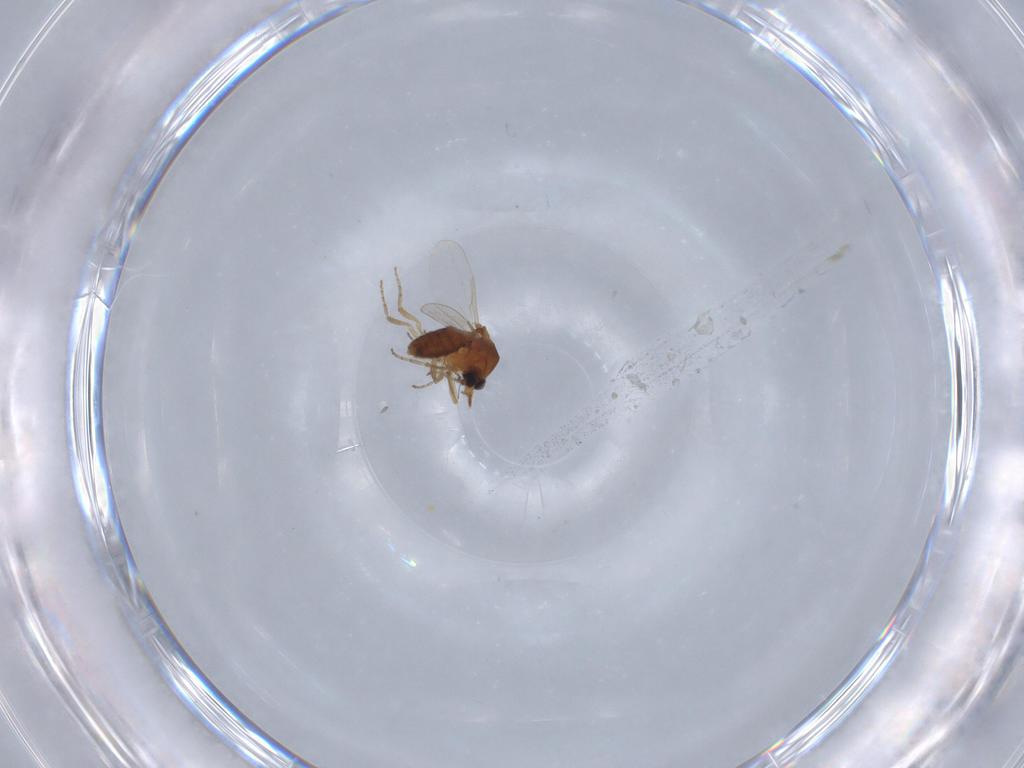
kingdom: Animalia
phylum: Arthropoda
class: Insecta
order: Diptera
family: Ceratopogonidae
